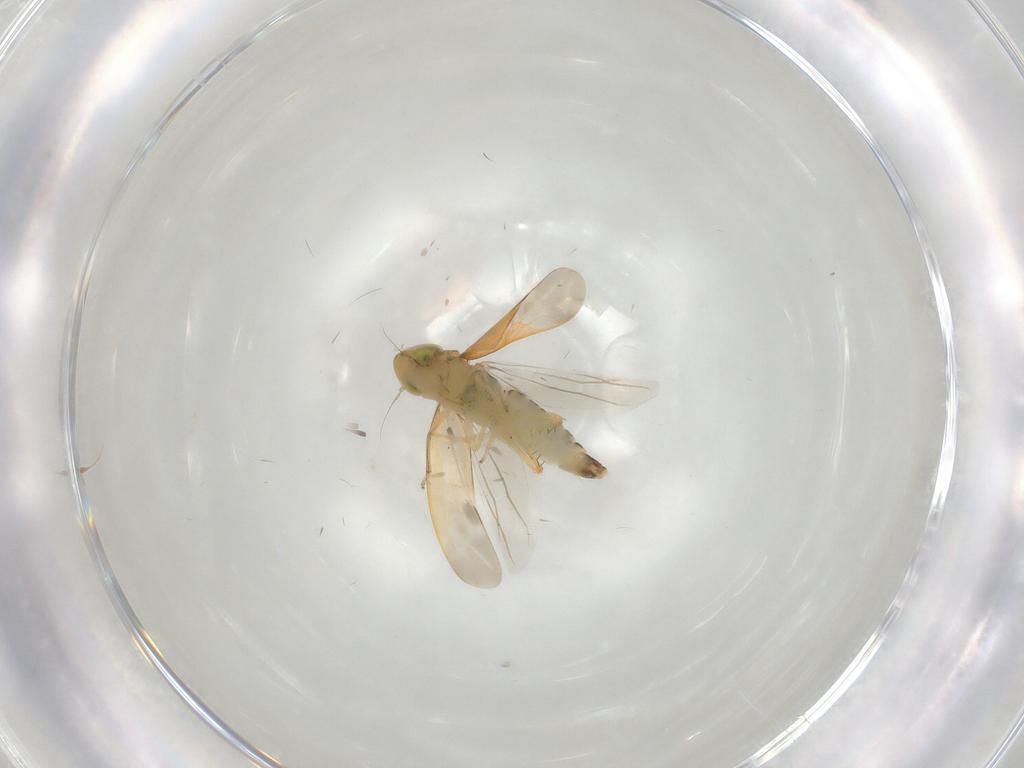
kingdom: Animalia
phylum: Arthropoda
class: Insecta
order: Hemiptera
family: Cicadellidae
